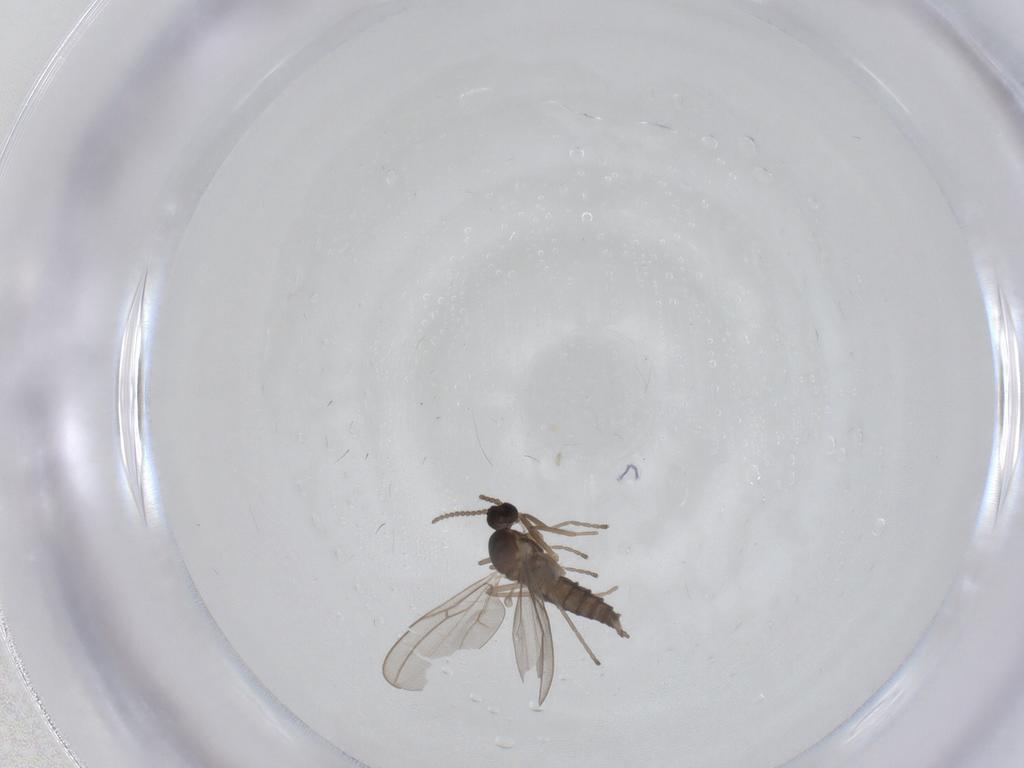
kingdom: Animalia
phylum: Arthropoda
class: Insecta
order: Diptera
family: Cecidomyiidae
